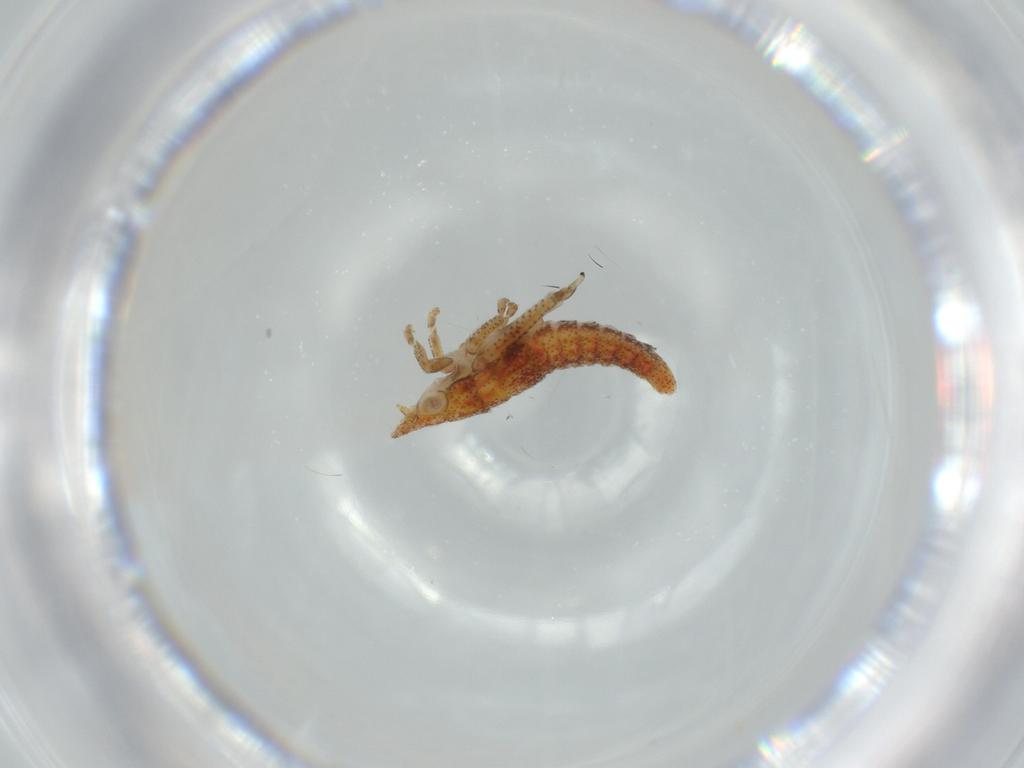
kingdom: Animalia
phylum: Arthropoda
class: Insecta
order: Hemiptera
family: Cicadellidae
